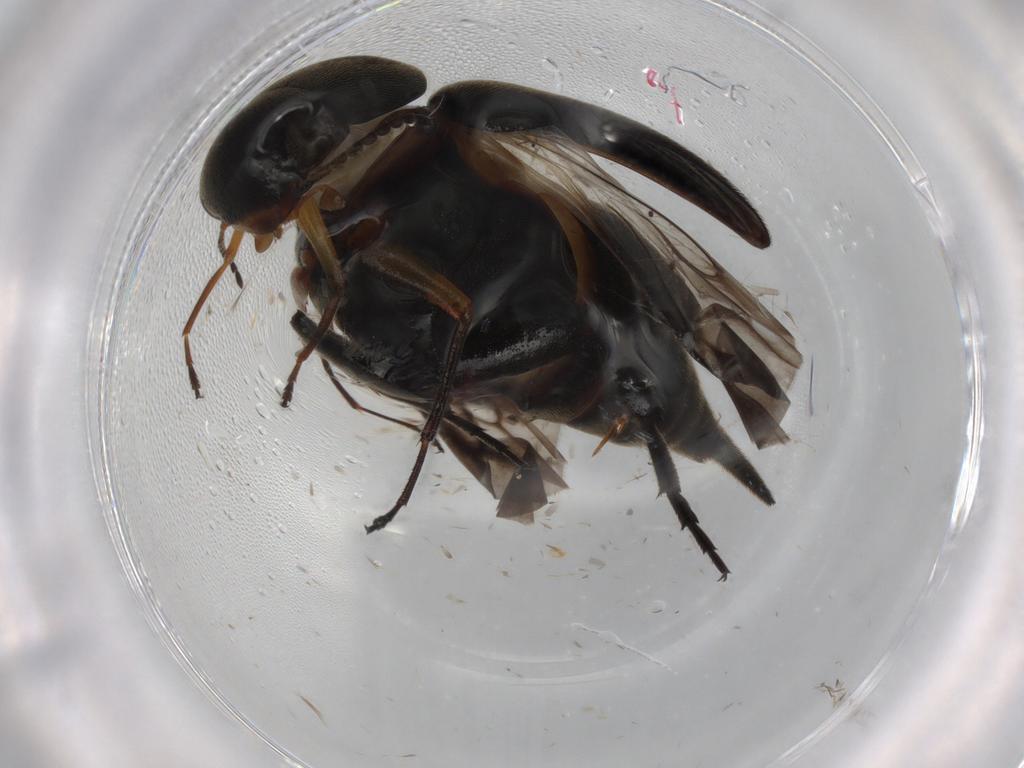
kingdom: Animalia
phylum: Arthropoda
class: Insecta
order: Coleoptera
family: Mordellidae
